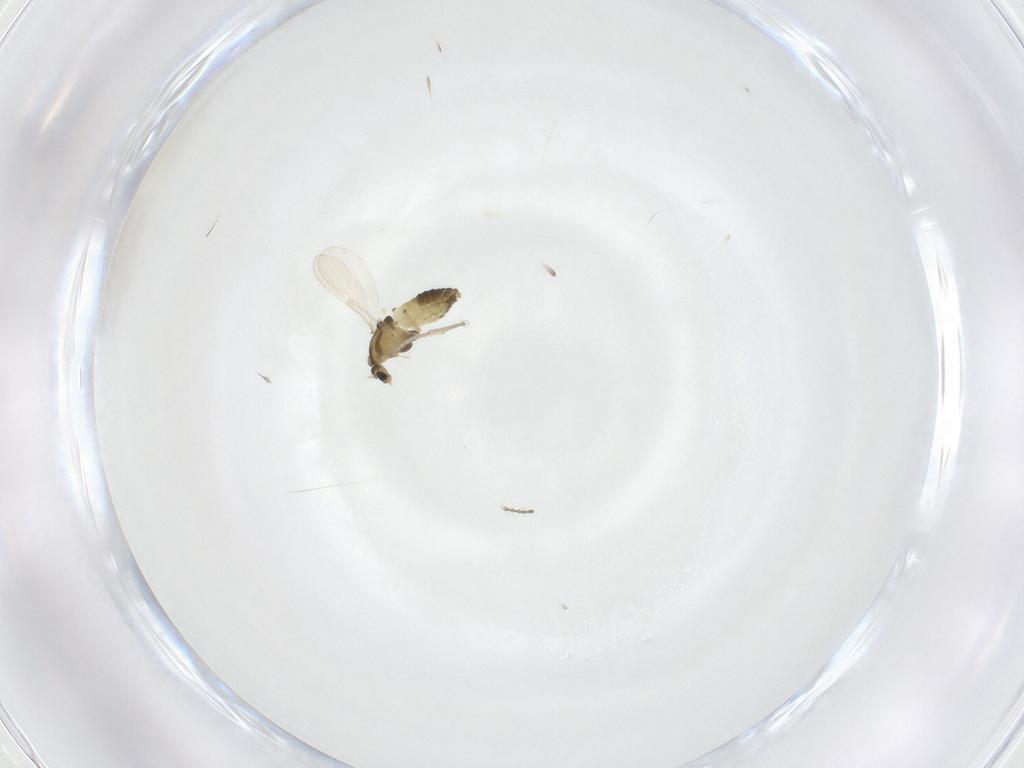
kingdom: Animalia
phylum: Arthropoda
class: Insecta
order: Diptera
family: Chironomidae
